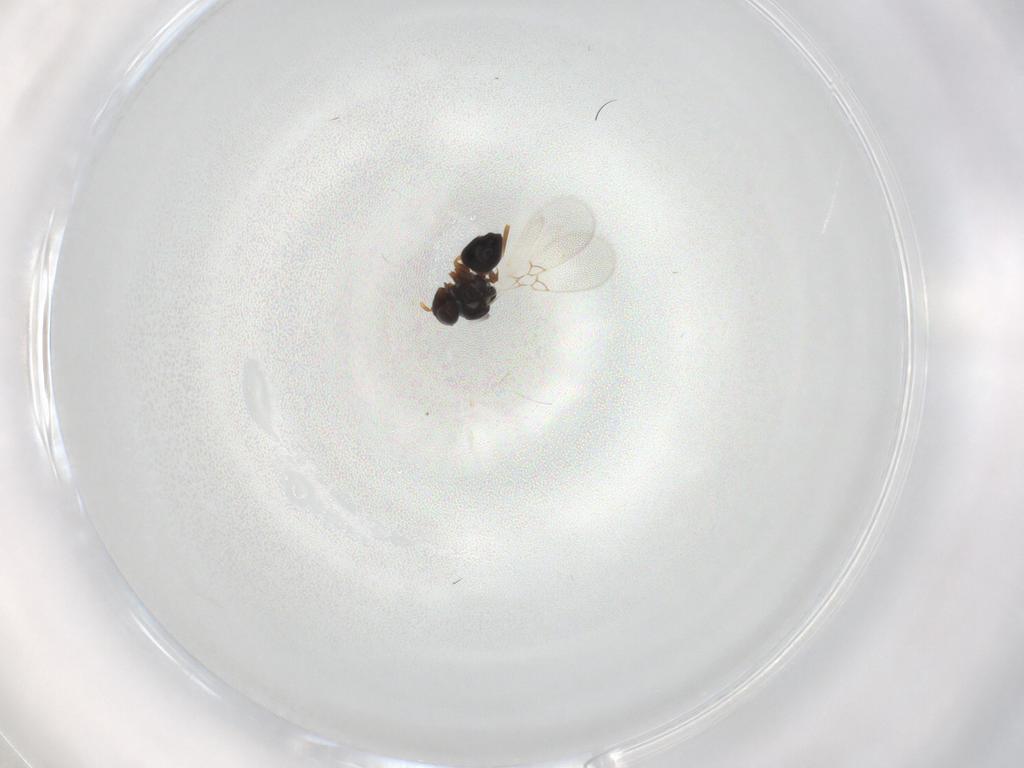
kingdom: Animalia
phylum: Arthropoda
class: Insecta
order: Hymenoptera
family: Figitidae
